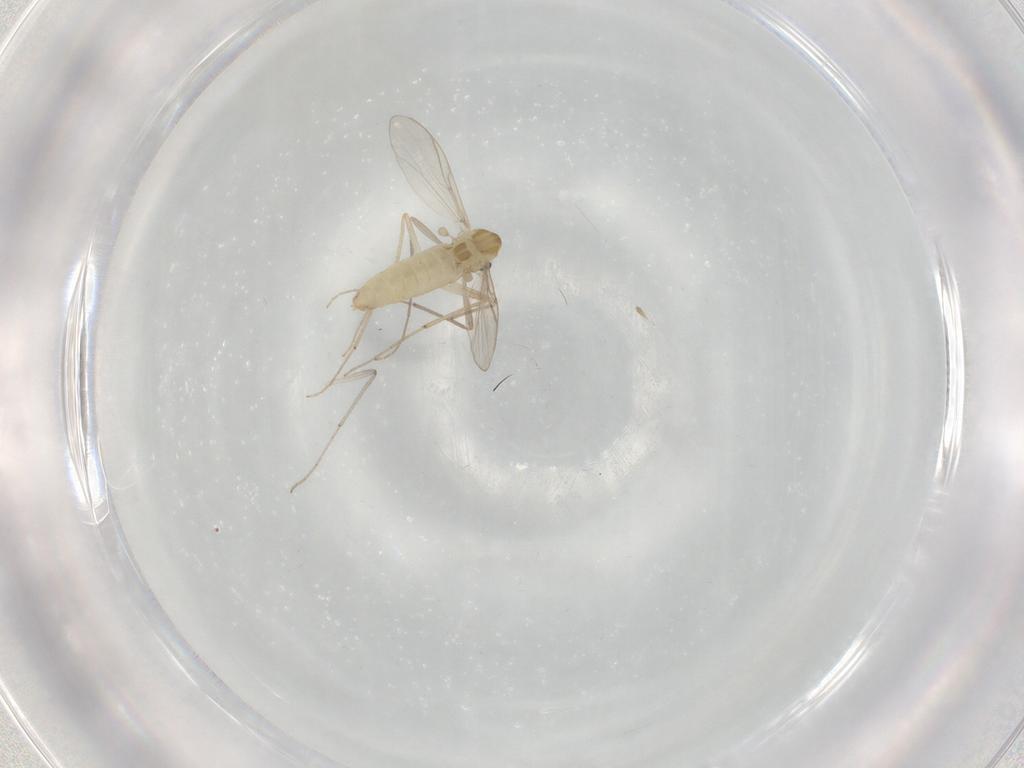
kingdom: Animalia
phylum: Arthropoda
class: Insecta
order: Diptera
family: Chironomidae
